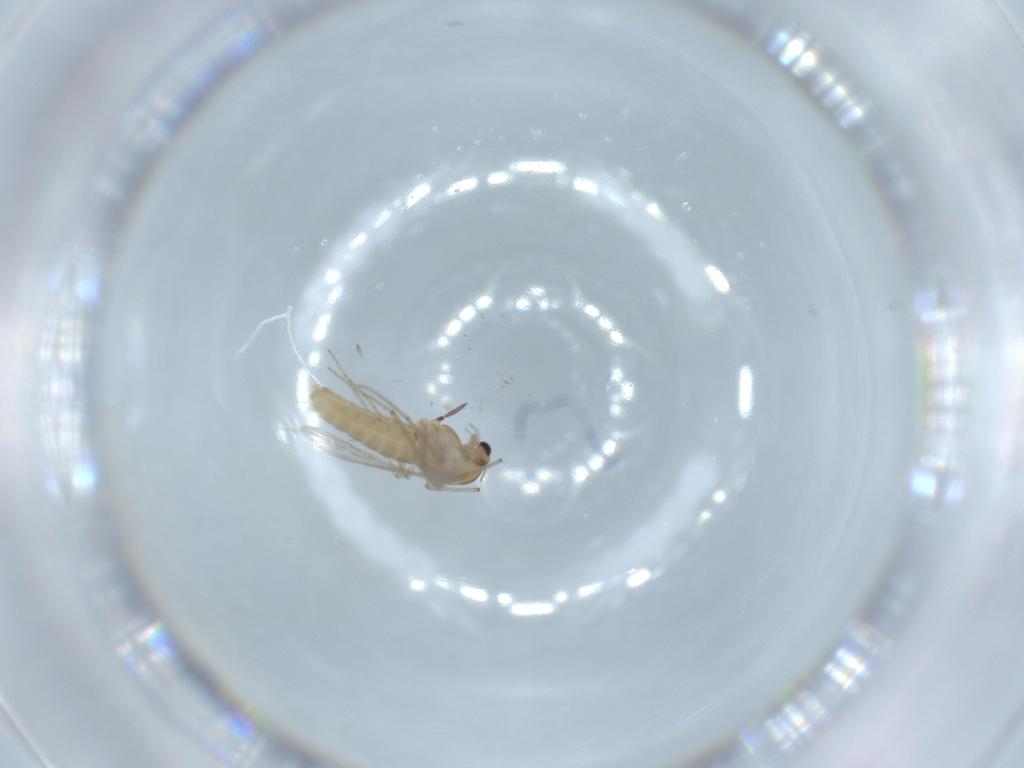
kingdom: Animalia
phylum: Arthropoda
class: Insecta
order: Diptera
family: Chironomidae
